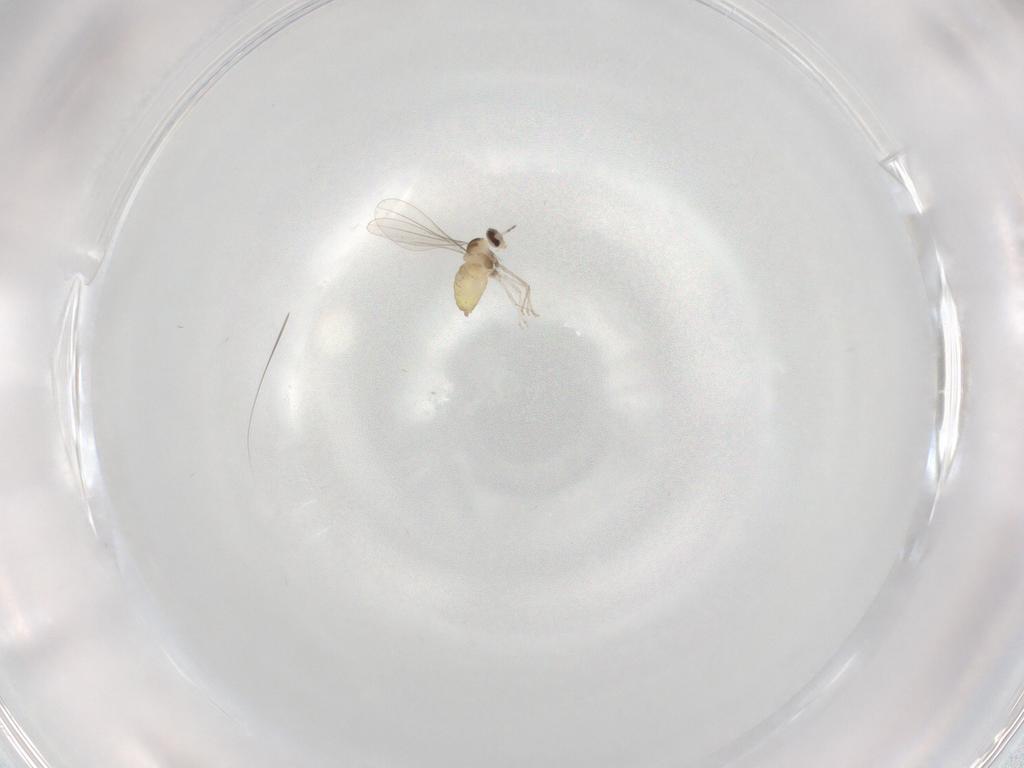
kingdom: Animalia
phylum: Arthropoda
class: Insecta
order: Diptera
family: Cecidomyiidae
